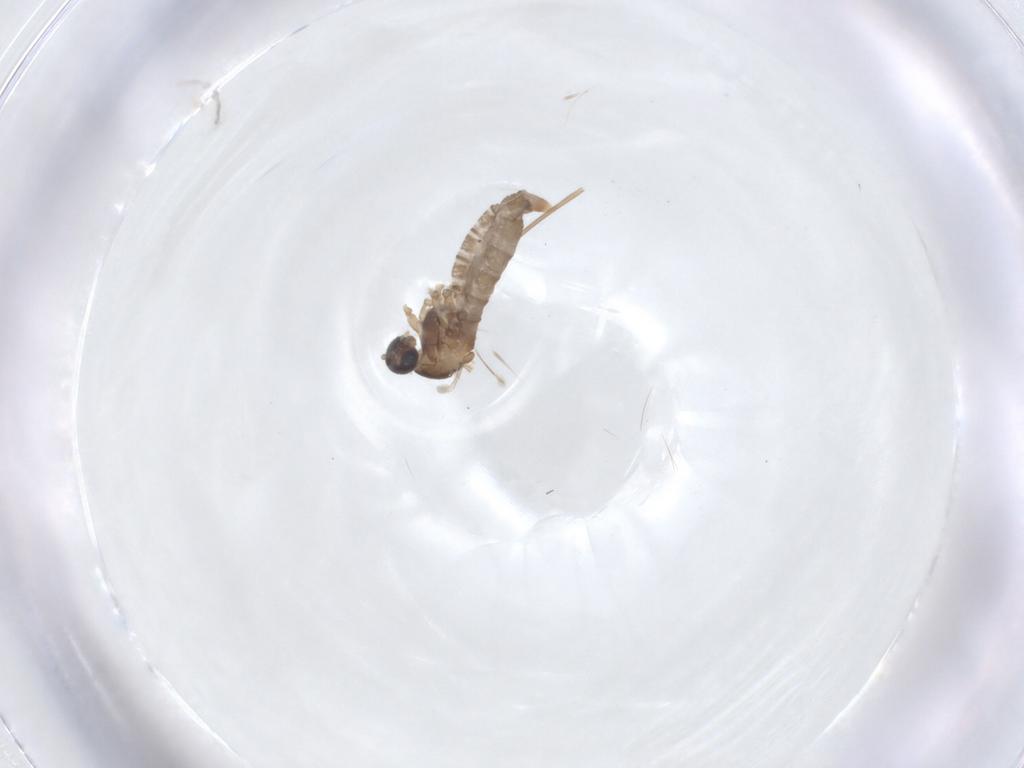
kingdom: Animalia
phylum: Arthropoda
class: Insecta
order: Diptera
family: Cecidomyiidae
